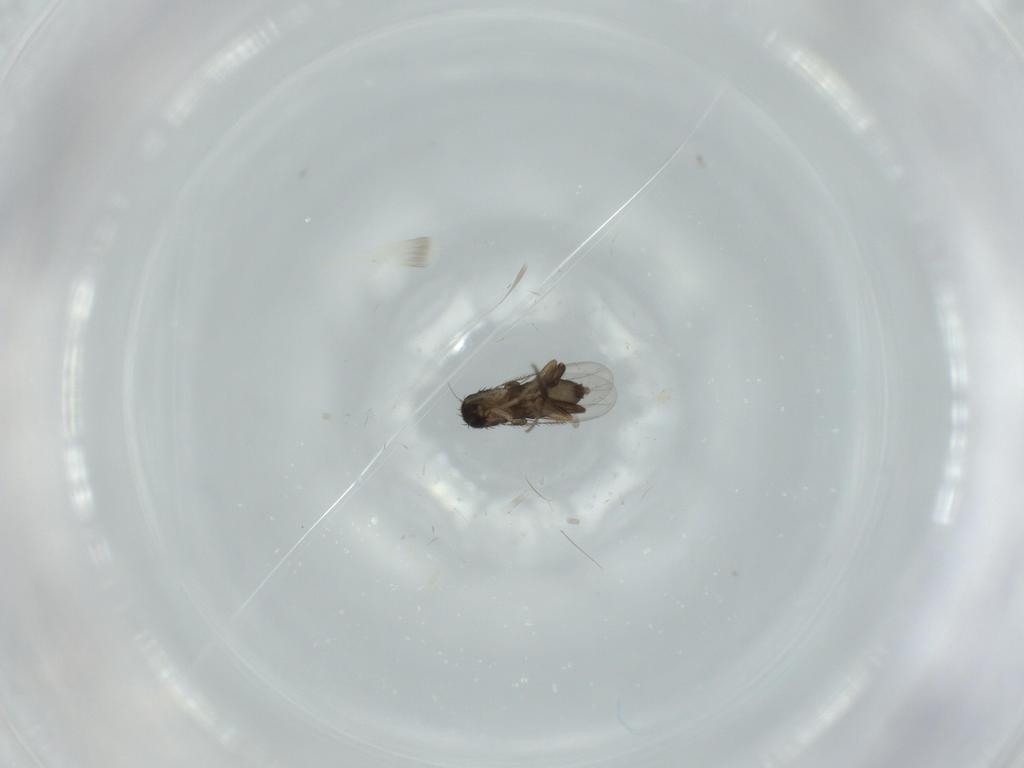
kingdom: Animalia
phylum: Arthropoda
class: Insecta
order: Diptera
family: Phoridae
